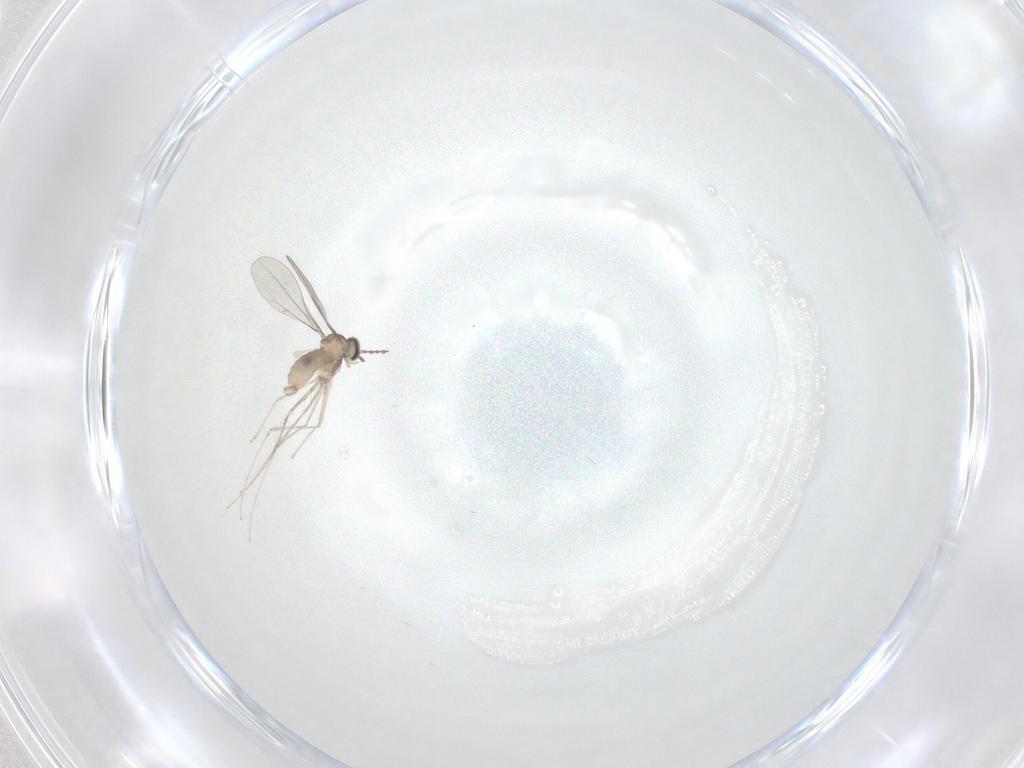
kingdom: Animalia
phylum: Arthropoda
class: Insecta
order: Diptera
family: Cecidomyiidae
